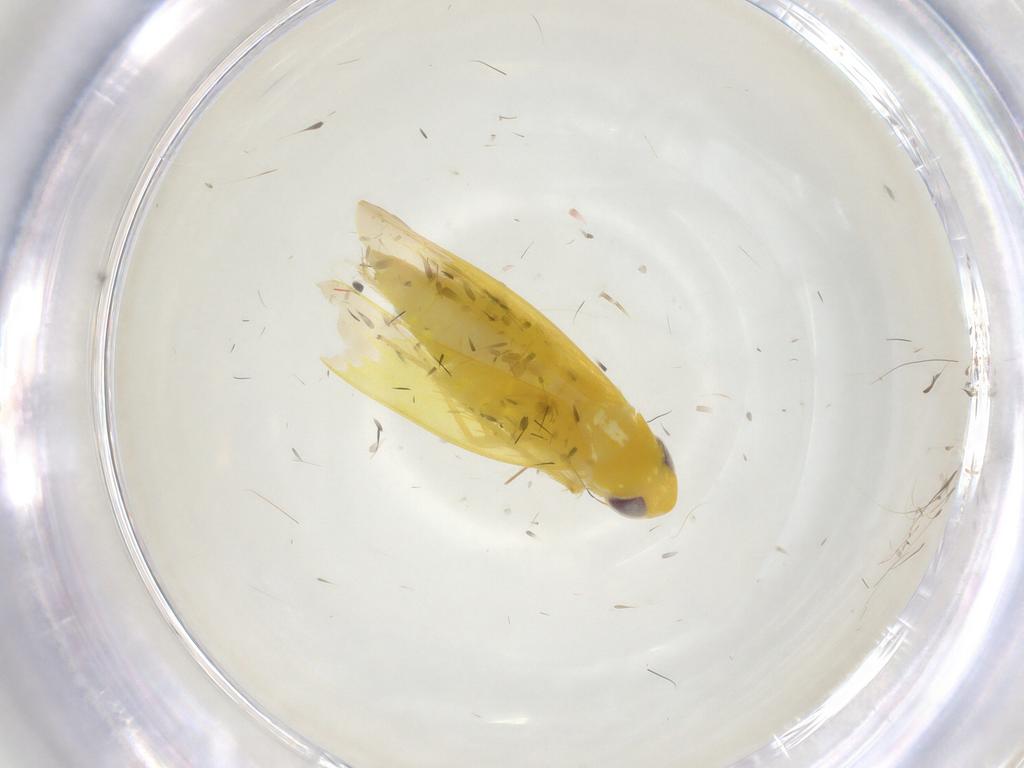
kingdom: Animalia
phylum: Arthropoda
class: Insecta
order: Hemiptera
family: Cicadellidae
